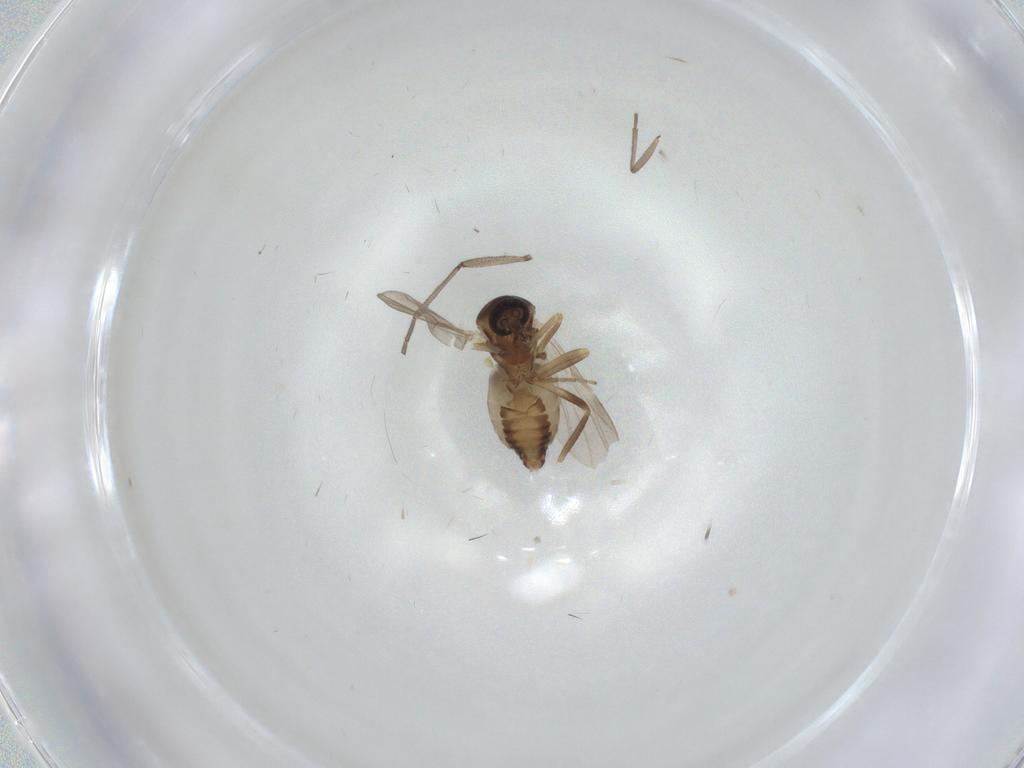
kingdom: Animalia
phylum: Arthropoda
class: Insecta
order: Diptera
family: Ceratopogonidae
